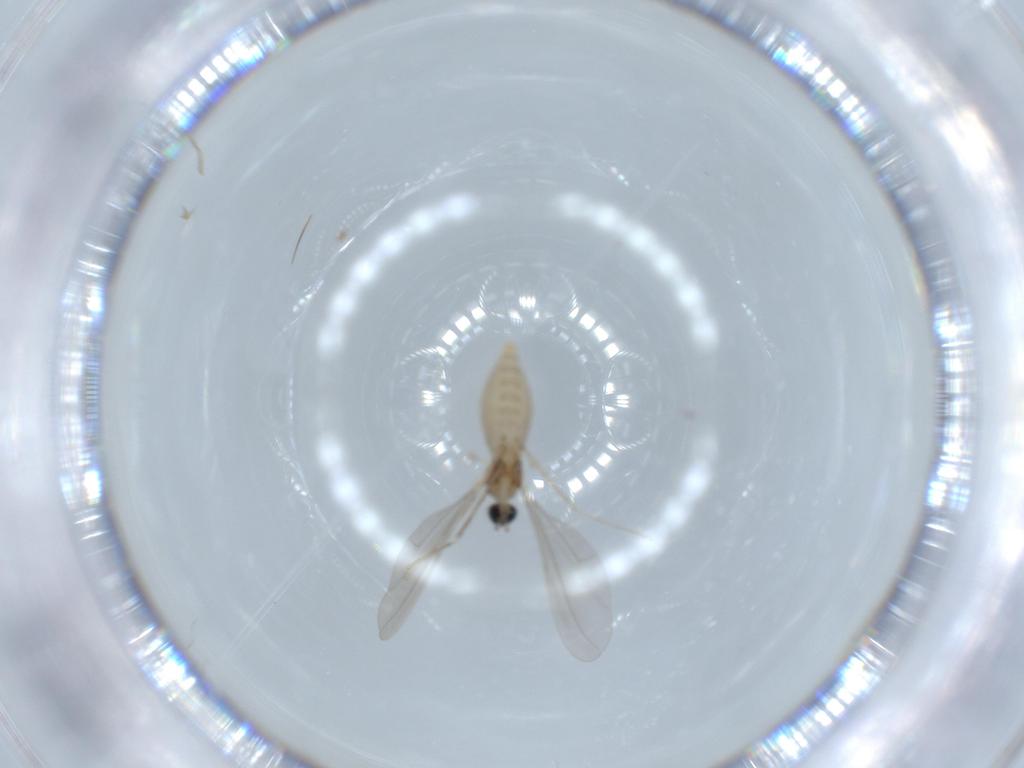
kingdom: Animalia
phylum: Arthropoda
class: Insecta
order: Diptera
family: Cecidomyiidae
